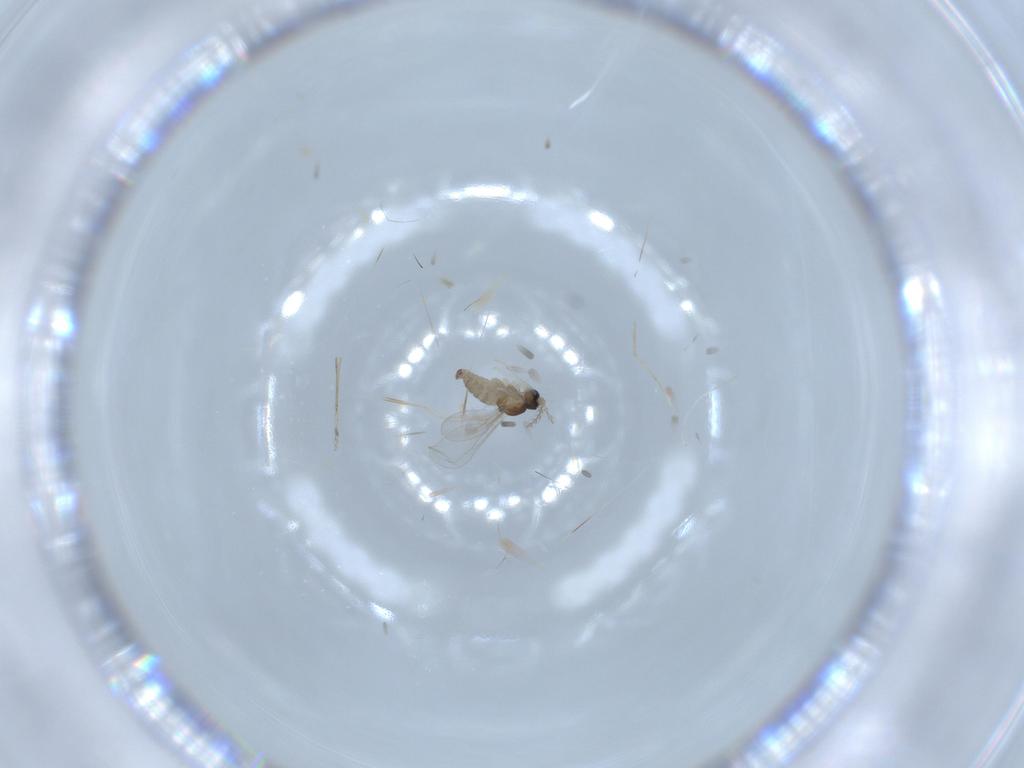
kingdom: Animalia
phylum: Arthropoda
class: Insecta
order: Diptera
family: Cecidomyiidae
